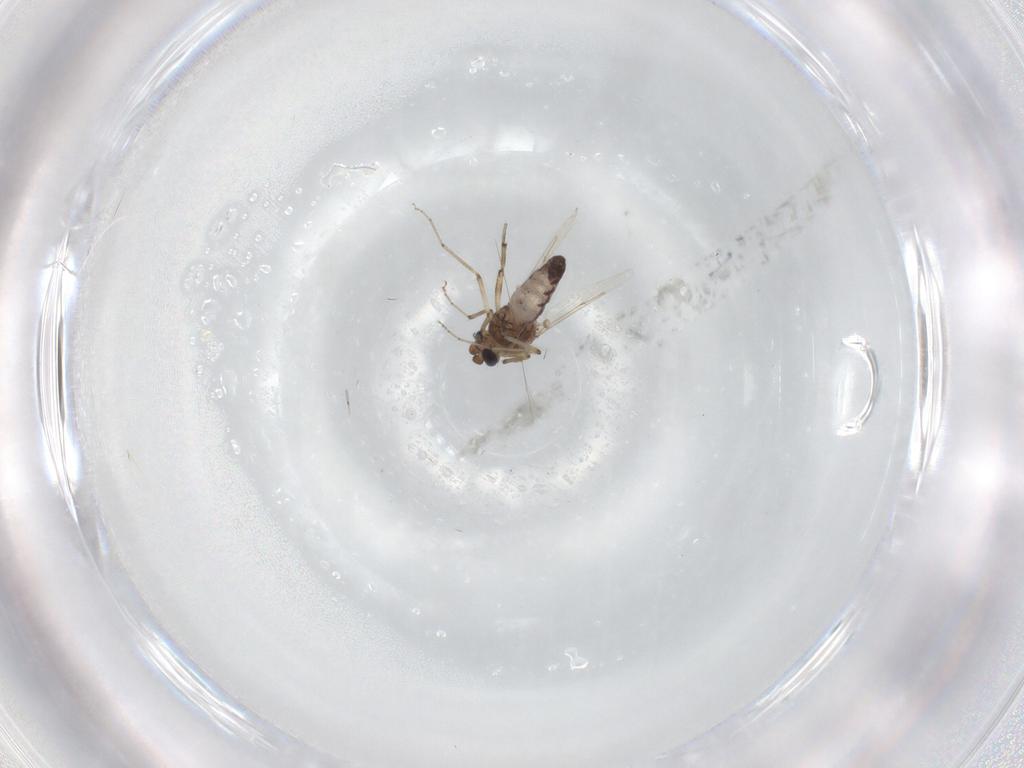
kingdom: Animalia
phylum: Arthropoda
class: Insecta
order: Diptera
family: Ceratopogonidae
